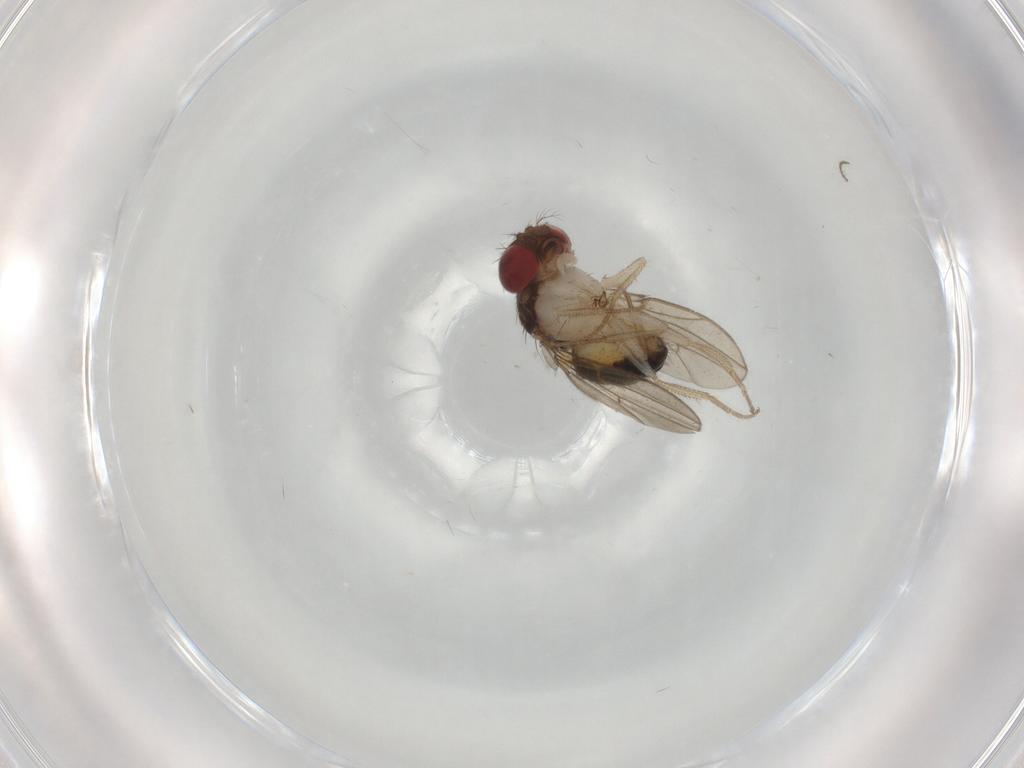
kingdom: Animalia
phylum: Arthropoda
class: Insecta
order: Diptera
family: Drosophilidae
